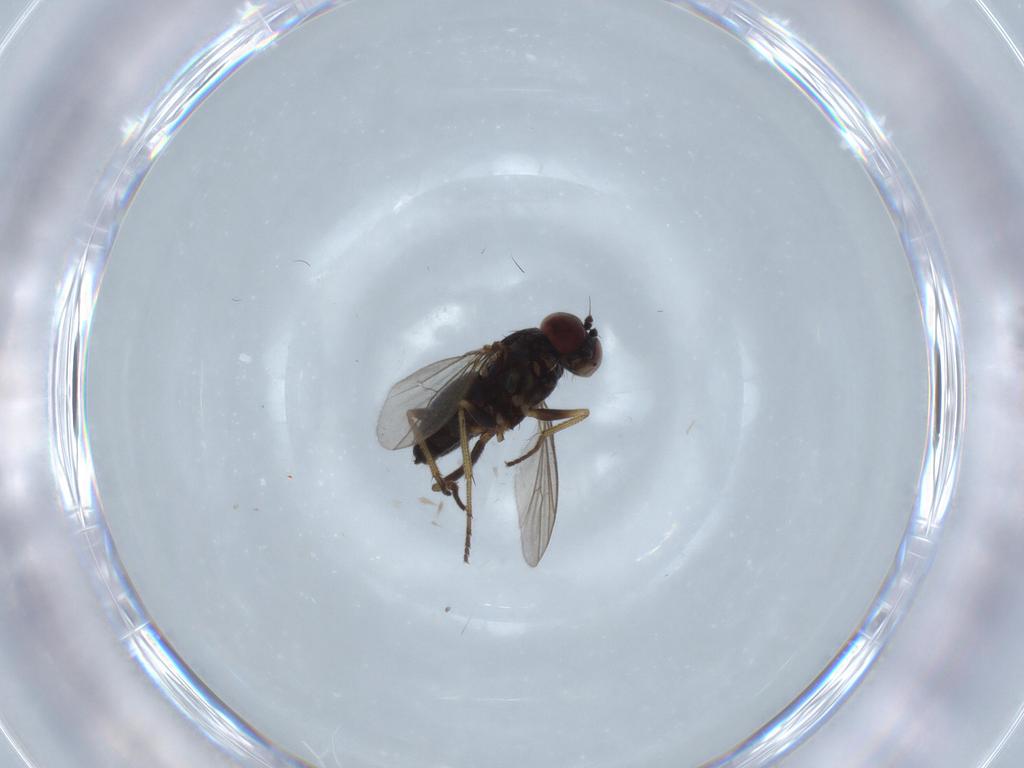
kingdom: Animalia
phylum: Arthropoda
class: Insecta
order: Diptera
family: Dolichopodidae
